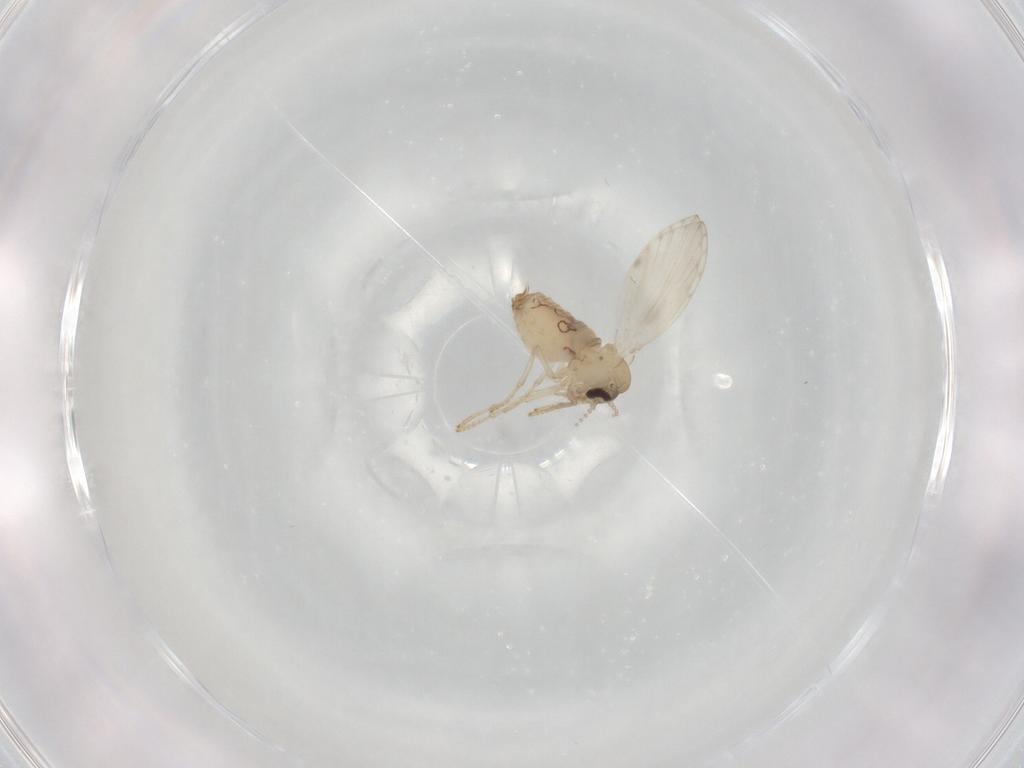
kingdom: Animalia
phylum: Arthropoda
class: Insecta
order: Diptera
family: Psychodidae
